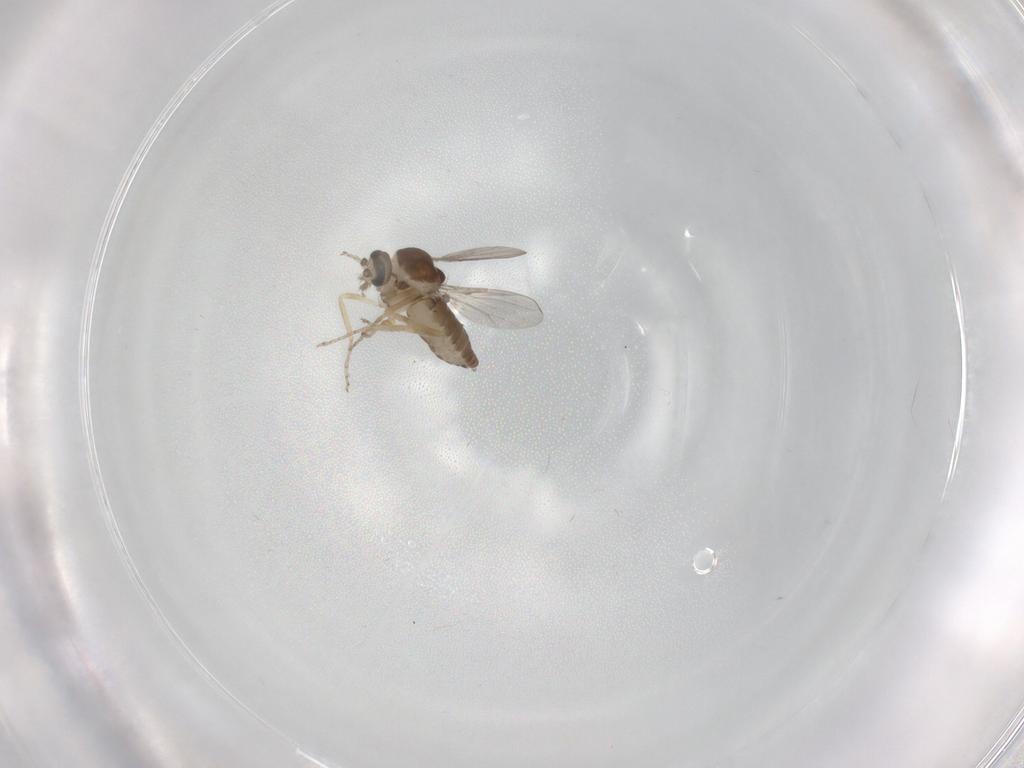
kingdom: Animalia
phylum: Arthropoda
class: Insecta
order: Diptera
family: Ceratopogonidae
